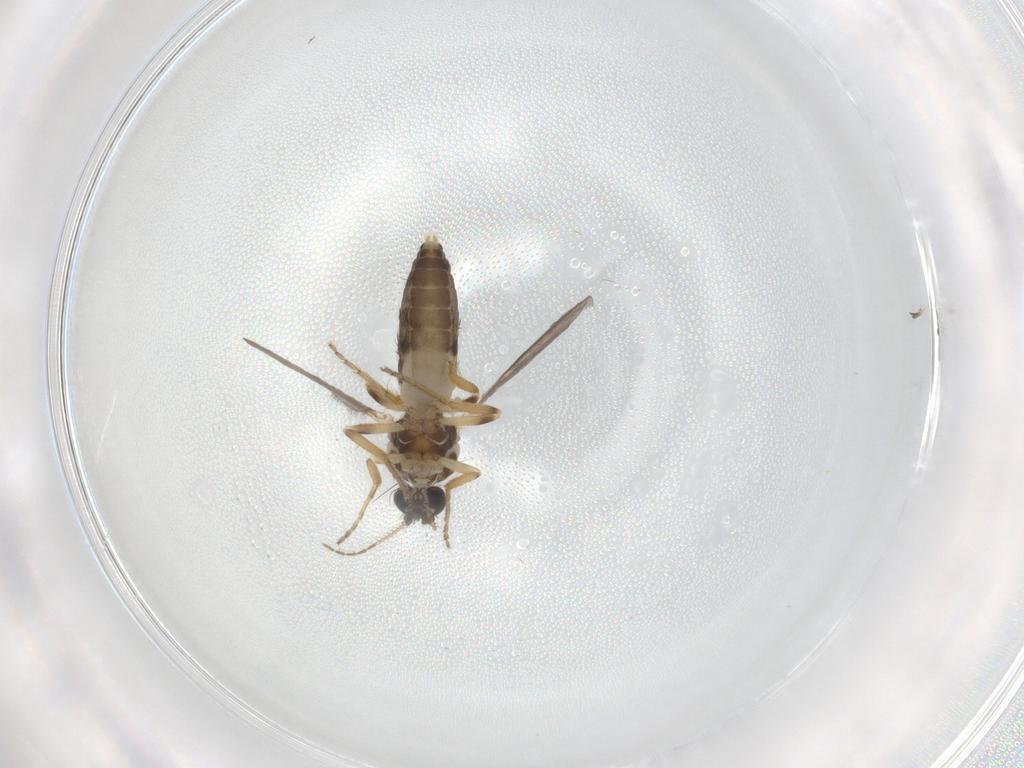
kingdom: Animalia
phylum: Arthropoda
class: Insecta
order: Diptera
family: Ceratopogonidae
